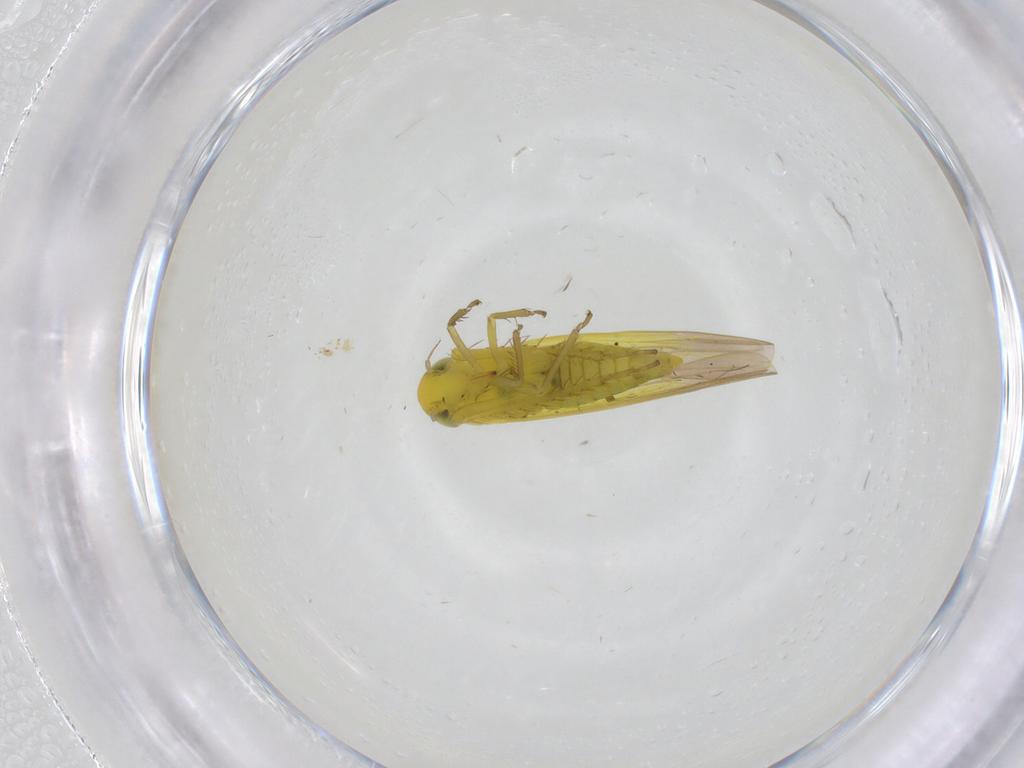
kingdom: Animalia
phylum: Arthropoda
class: Insecta
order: Hemiptera
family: Cicadellidae
